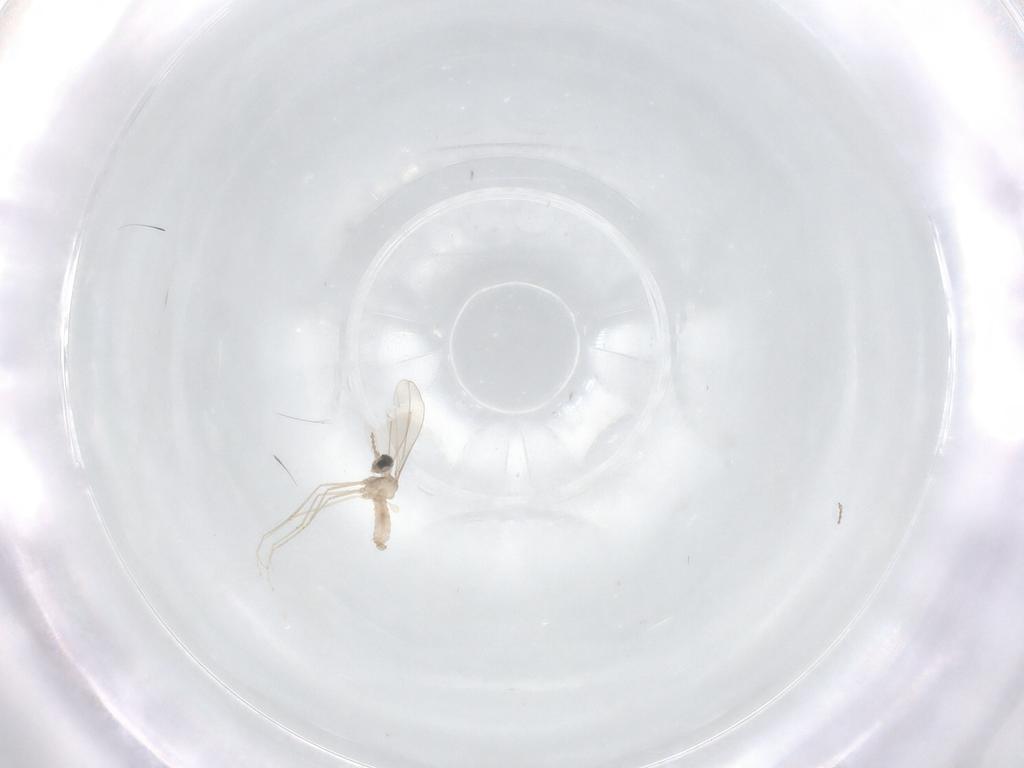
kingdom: Animalia
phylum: Arthropoda
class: Insecta
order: Diptera
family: Cecidomyiidae
